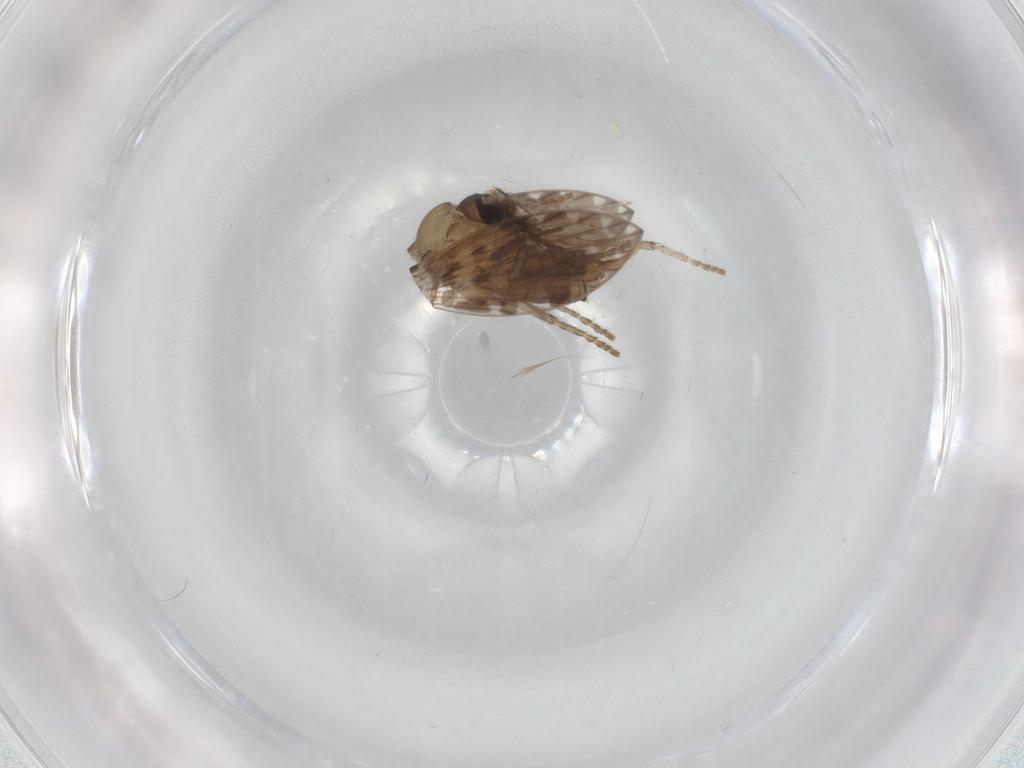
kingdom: Animalia
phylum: Arthropoda
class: Insecta
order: Diptera
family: Psychodidae
